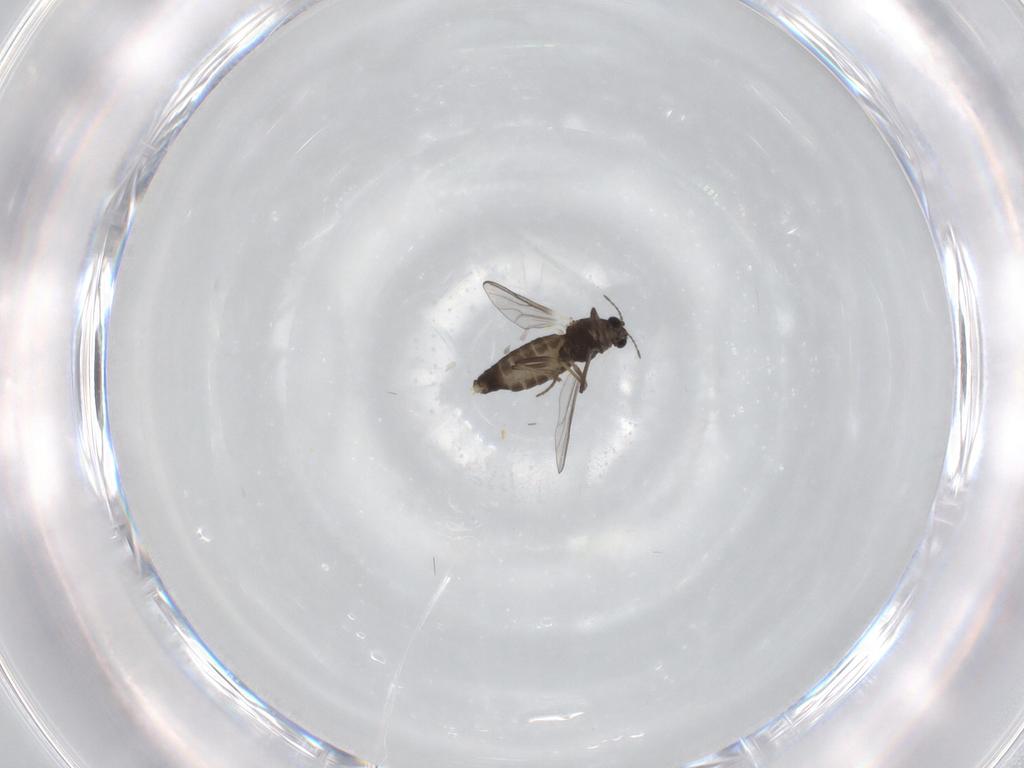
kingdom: Animalia
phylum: Arthropoda
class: Insecta
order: Diptera
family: Chironomidae
